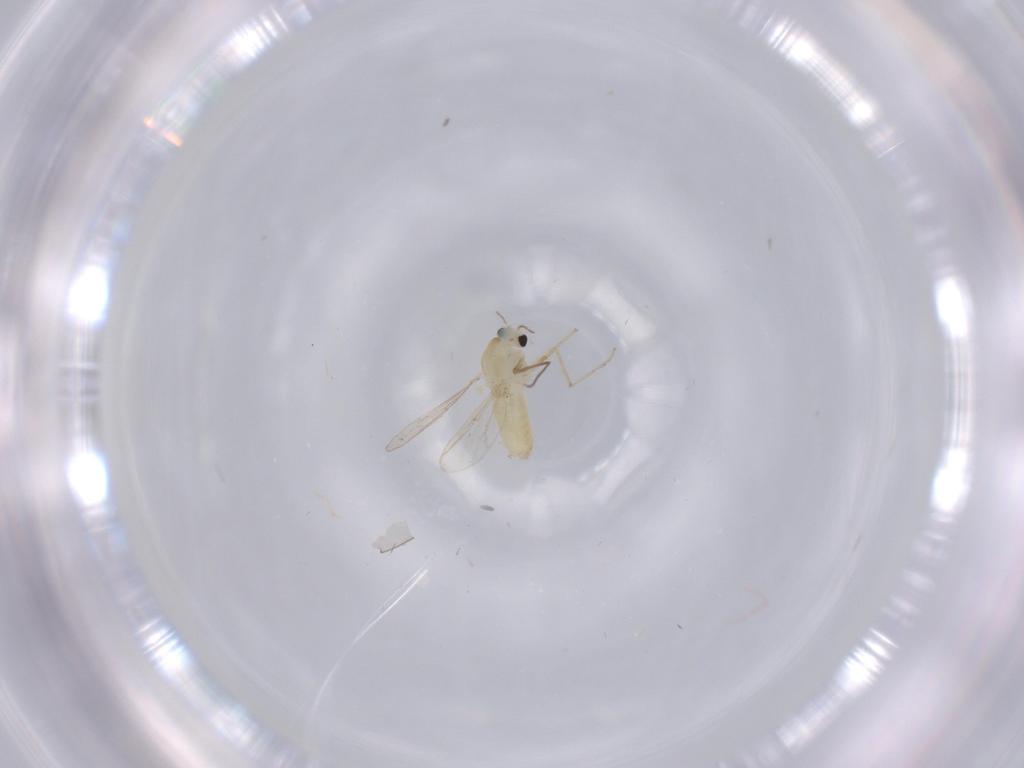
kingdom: Animalia
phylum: Arthropoda
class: Insecta
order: Diptera
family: Chironomidae
